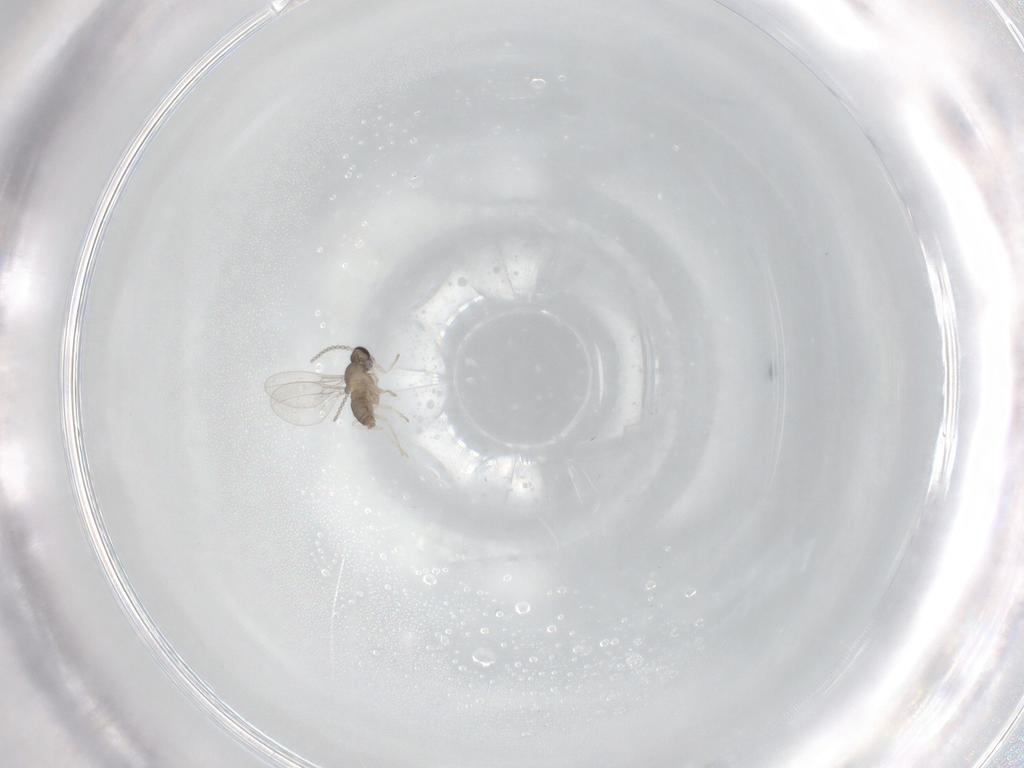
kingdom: Animalia
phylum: Arthropoda
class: Insecta
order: Diptera
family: Cecidomyiidae
